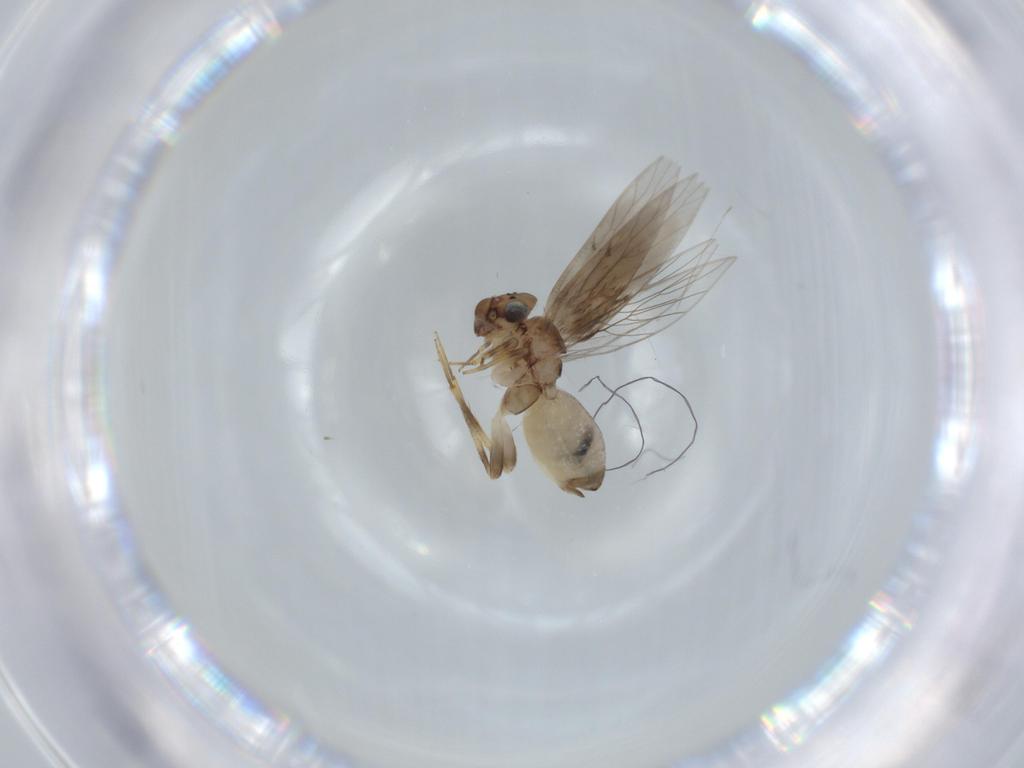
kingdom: Animalia
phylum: Arthropoda
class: Insecta
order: Psocodea
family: Lepidopsocidae
